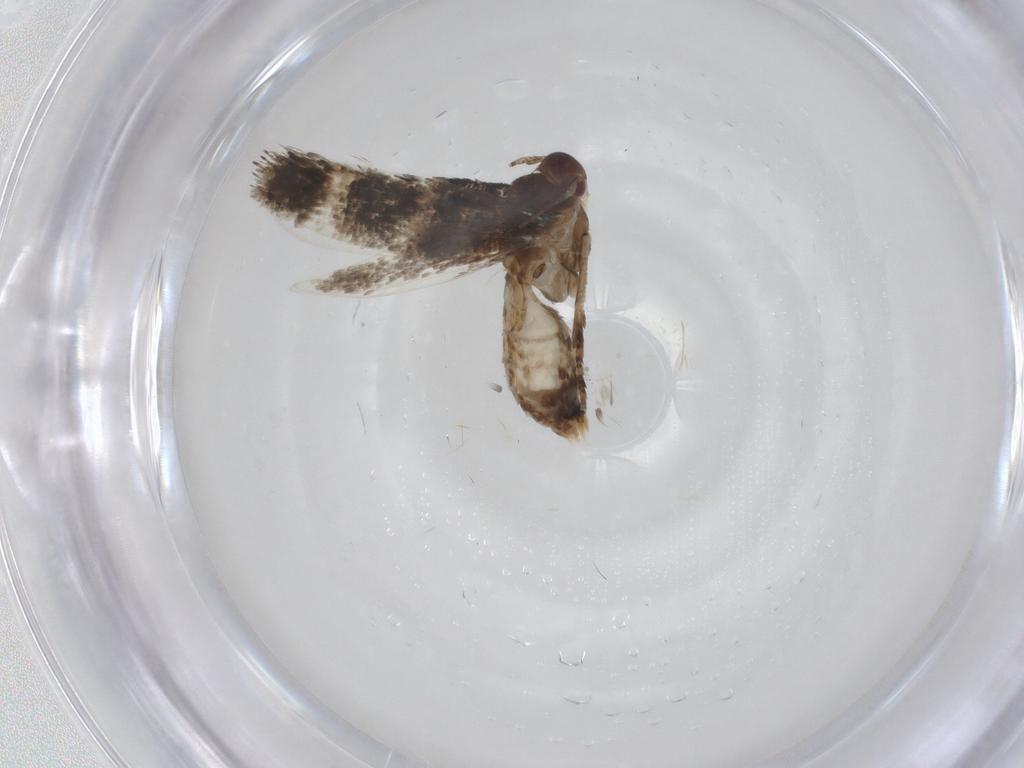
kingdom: Animalia
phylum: Arthropoda
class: Insecta
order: Lepidoptera
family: Momphidae
